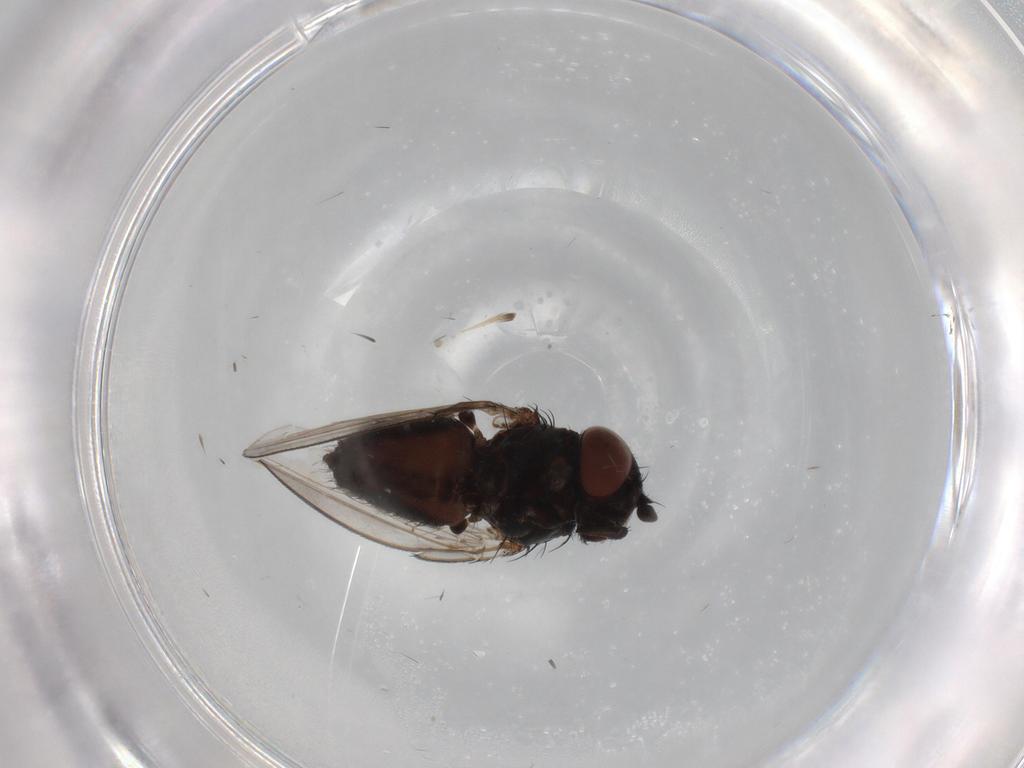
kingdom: Animalia
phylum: Arthropoda
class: Insecta
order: Diptera
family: Milichiidae
